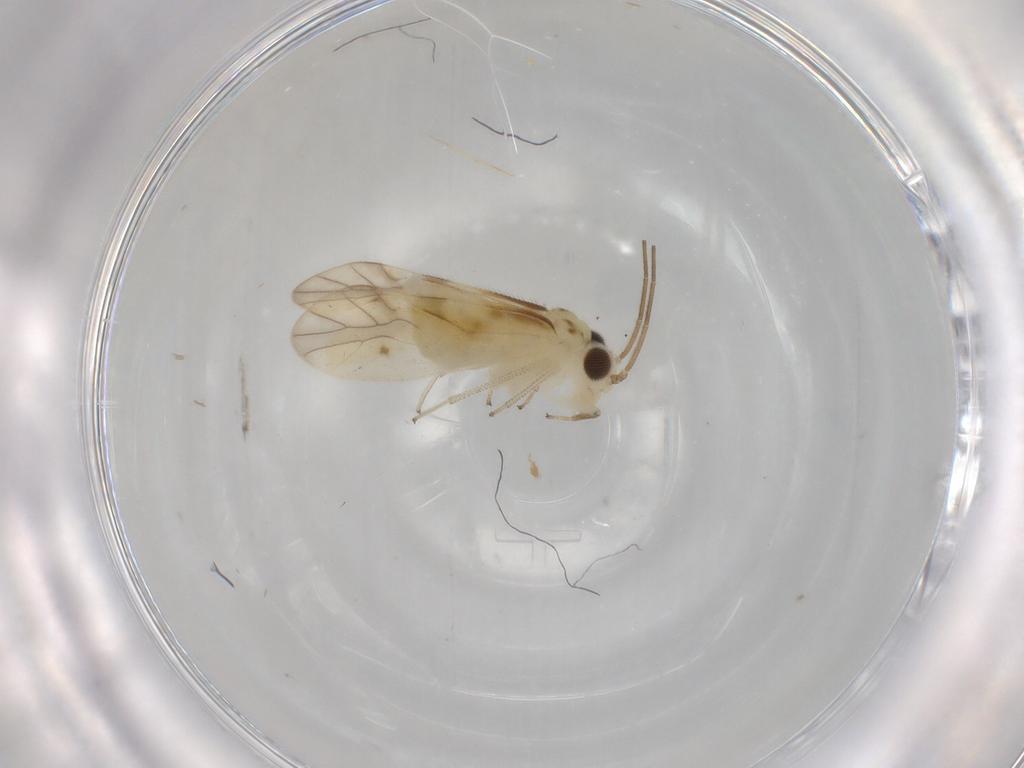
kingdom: Animalia
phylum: Arthropoda
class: Insecta
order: Psocodea
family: Caeciliusidae
